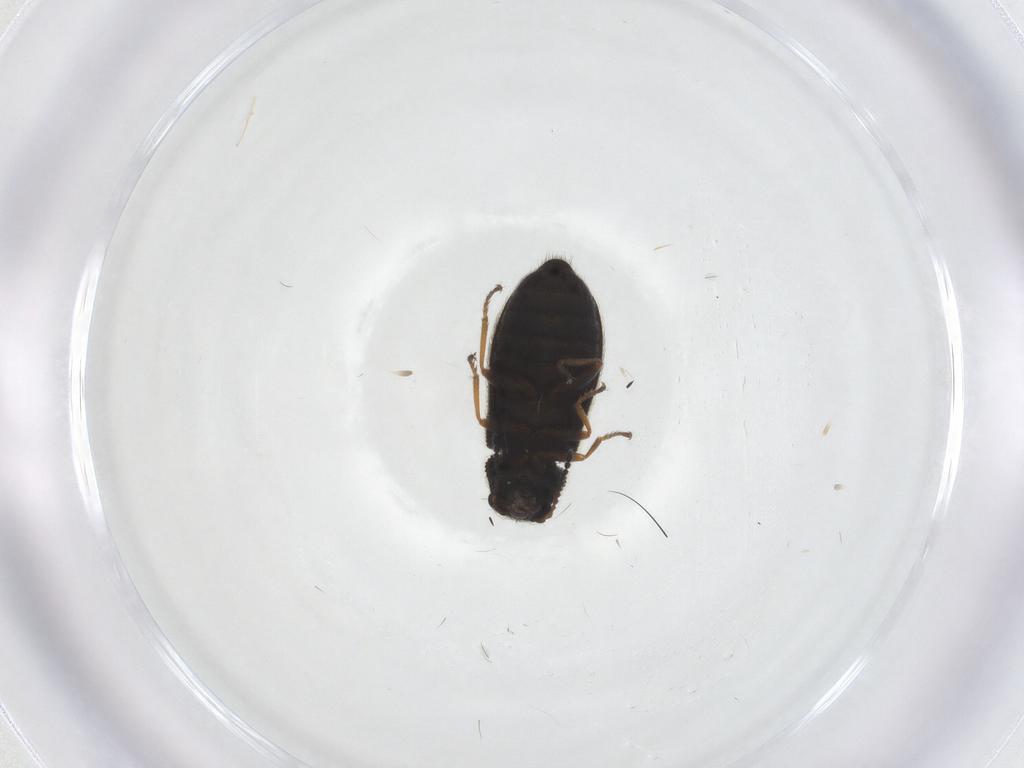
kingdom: Animalia
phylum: Arthropoda
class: Insecta
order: Coleoptera
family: Melyridae
